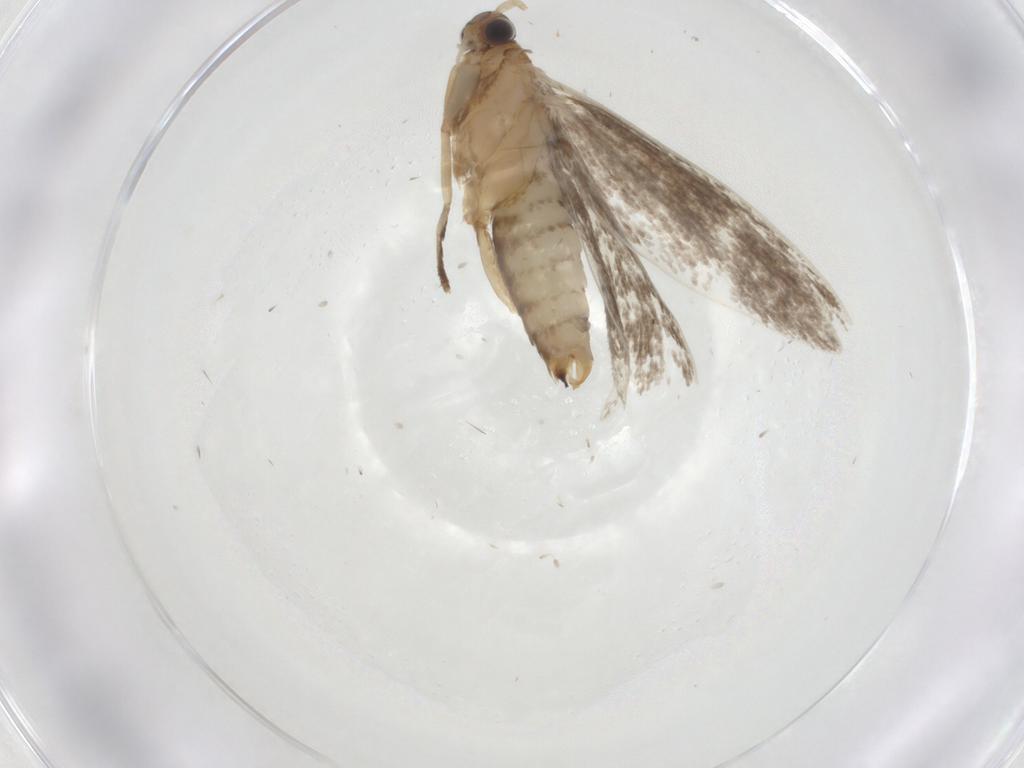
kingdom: Animalia
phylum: Arthropoda
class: Insecta
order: Lepidoptera
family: Tineidae
